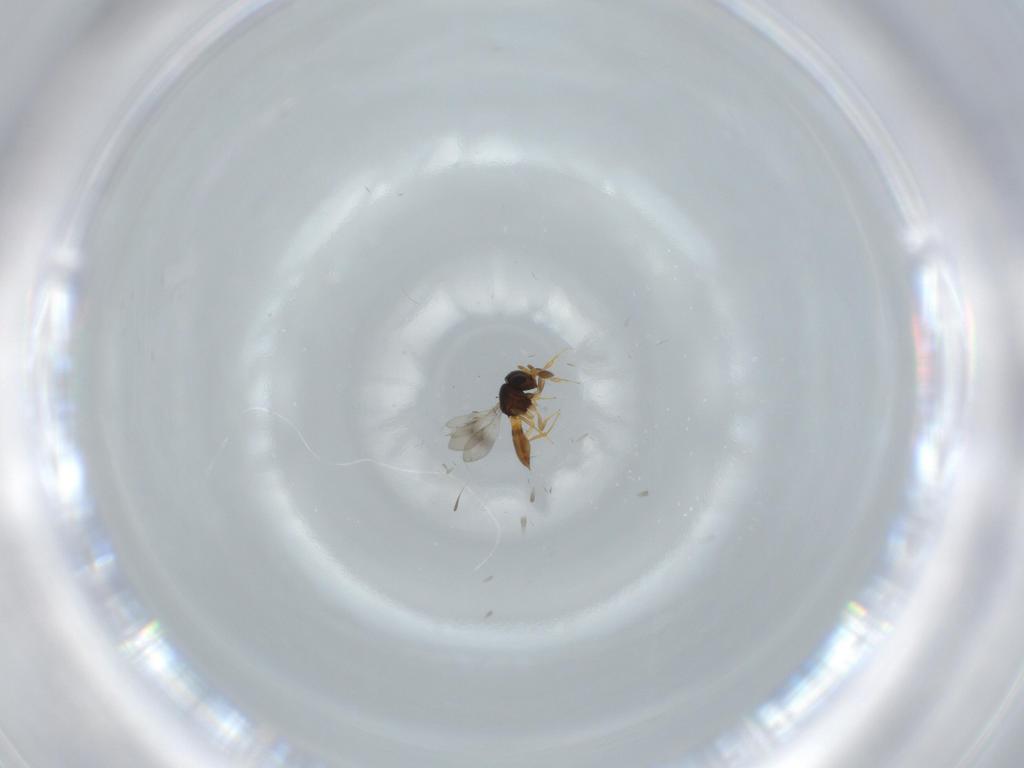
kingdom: Animalia
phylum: Arthropoda
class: Insecta
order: Hymenoptera
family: Scelionidae
